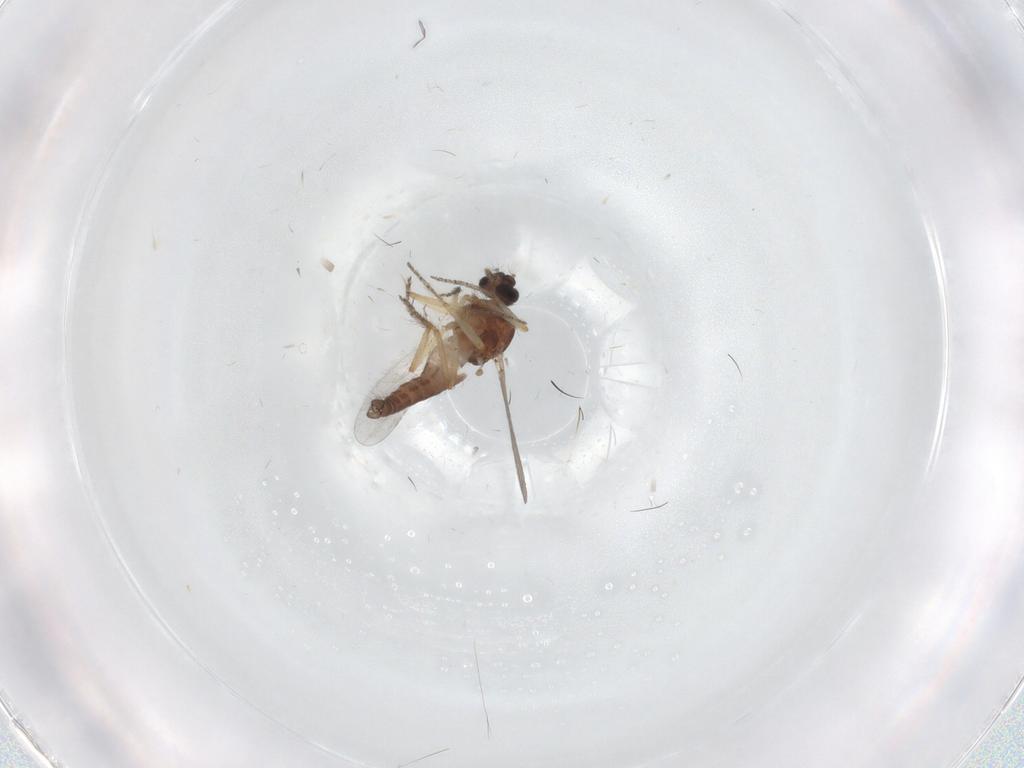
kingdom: Animalia
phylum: Arthropoda
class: Insecta
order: Diptera
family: Ceratopogonidae
